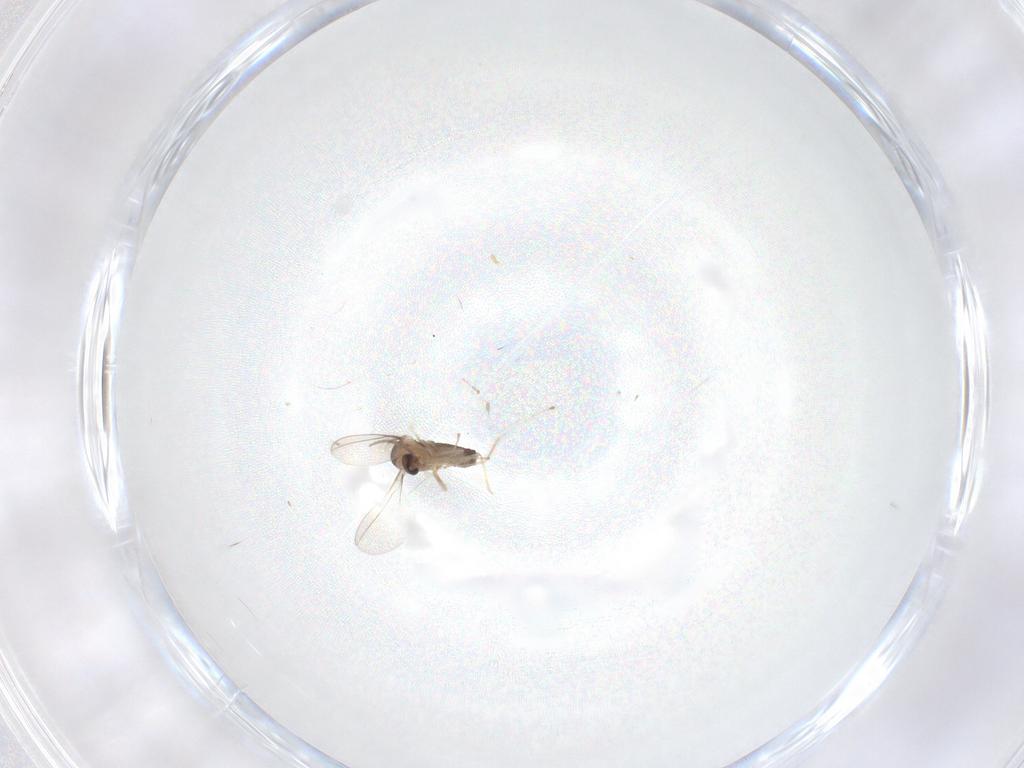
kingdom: Animalia
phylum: Arthropoda
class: Insecta
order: Diptera
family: Cecidomyiidae
